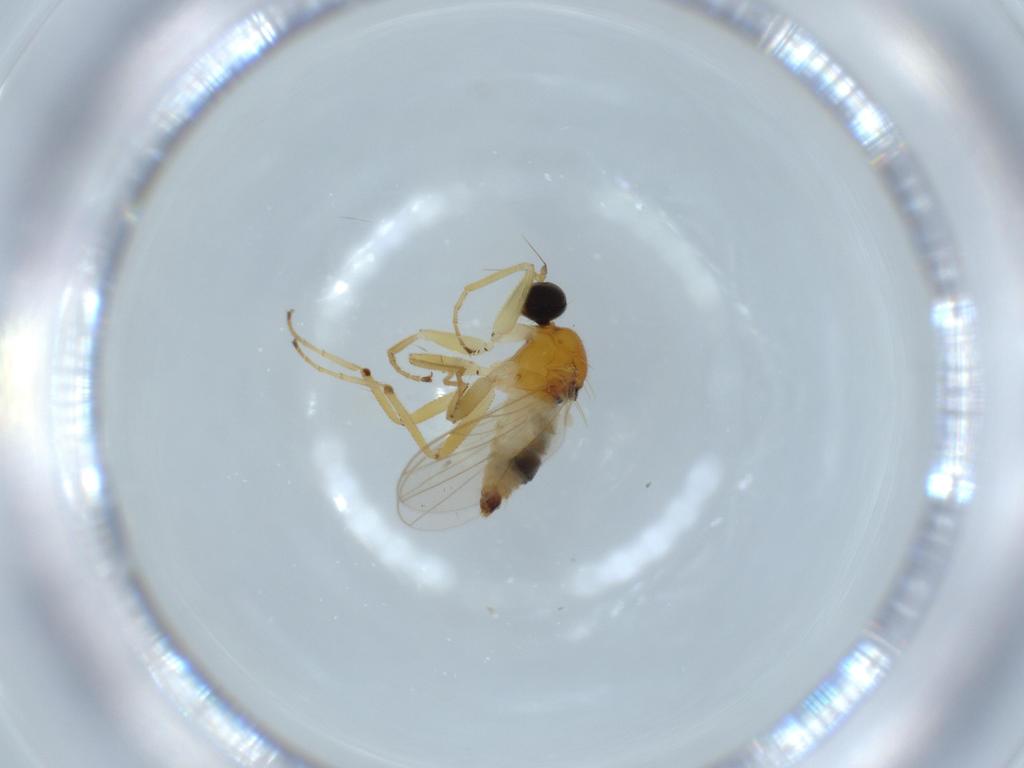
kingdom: Animalia
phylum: Arthropoda
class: Insecta
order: Diptera
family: Hybotidae
